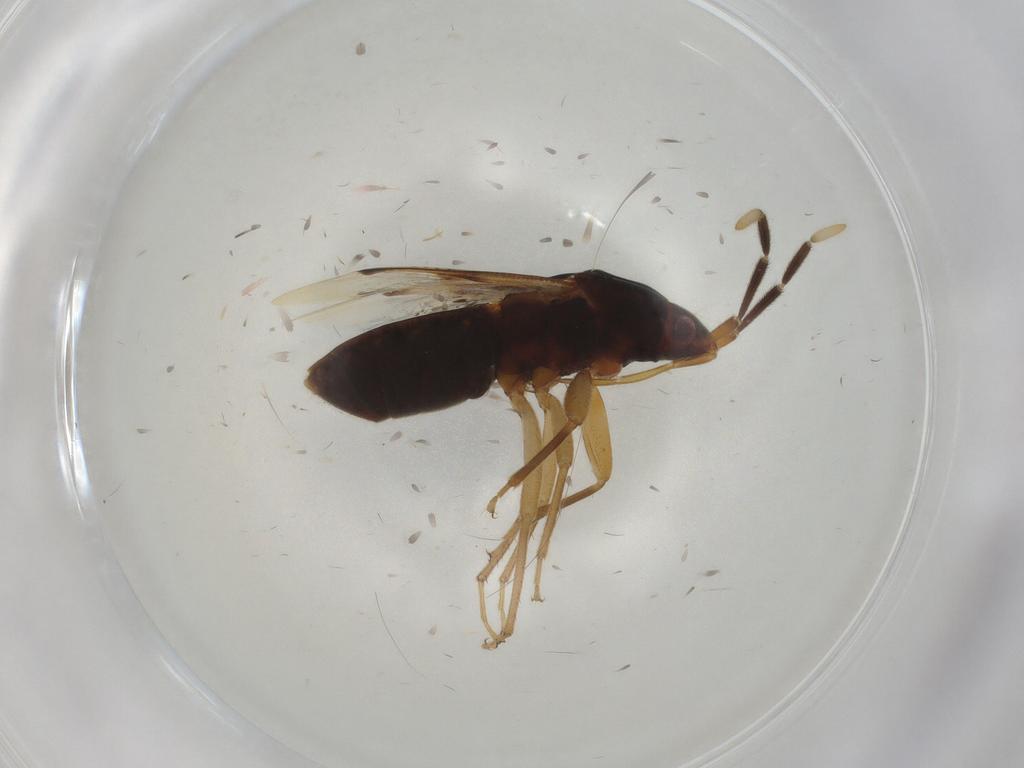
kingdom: Animalia
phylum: Arthropoda
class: Insecta
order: Hemiptera
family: Rhyparochromidae
